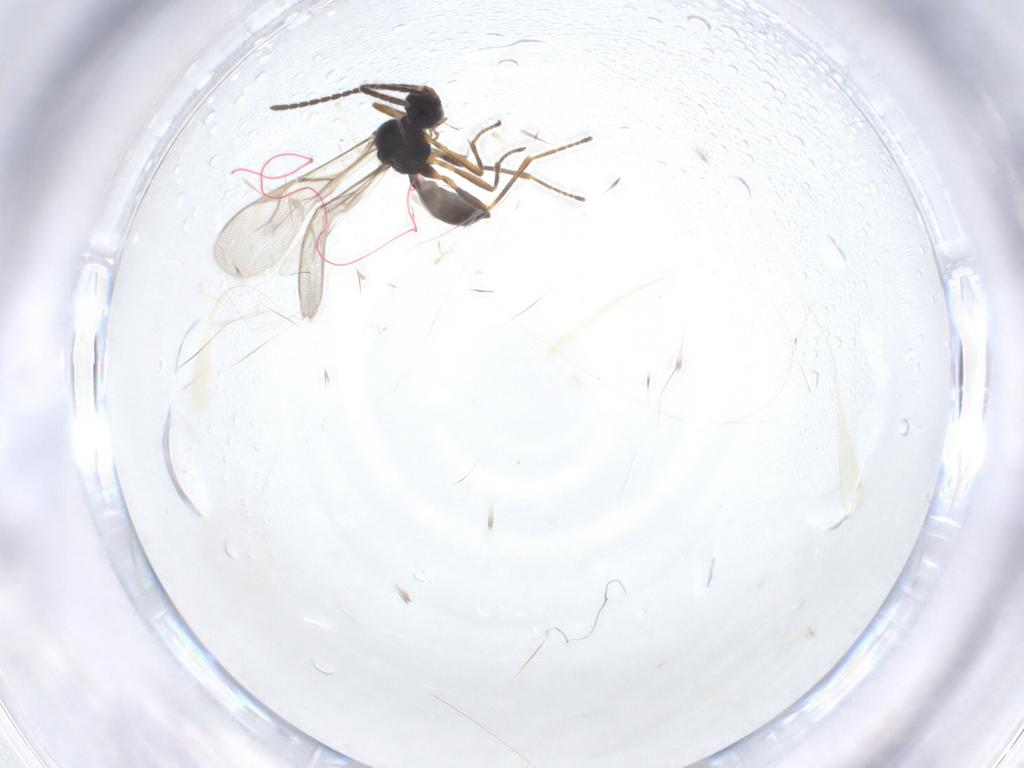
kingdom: Animalia
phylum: Arthropoda
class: Insecta
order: Hymenoptera
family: Braconidae
